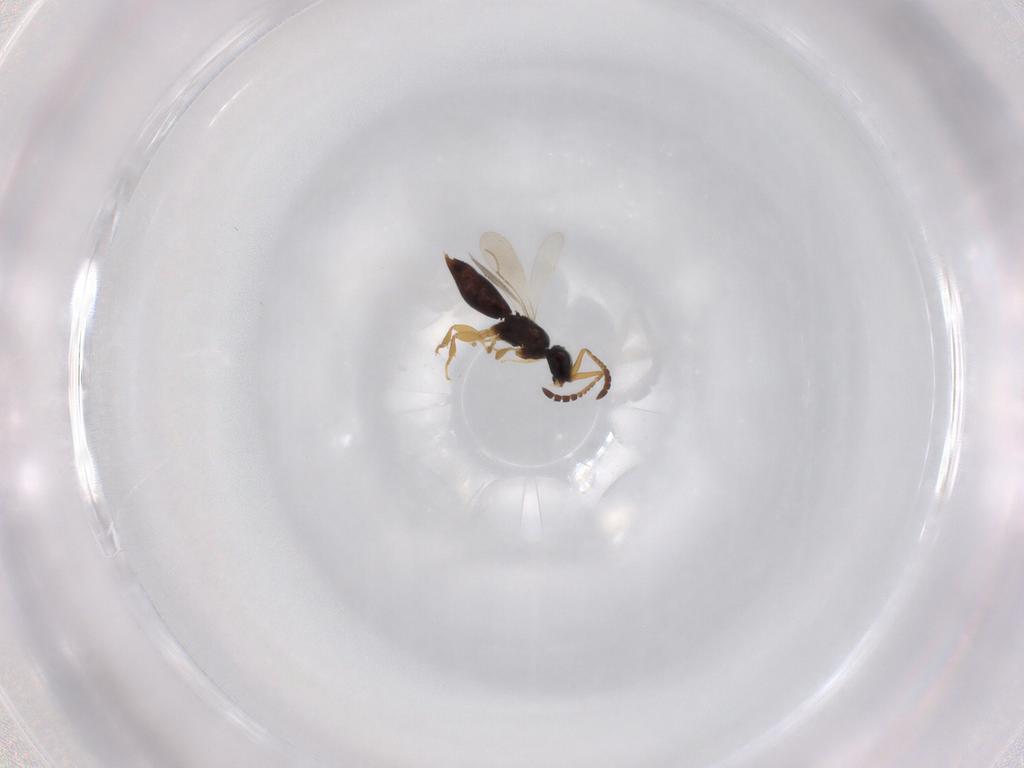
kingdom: Animalia
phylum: Arthropoda
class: Insecta
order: Hymenoptera
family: Ceraphronidae
